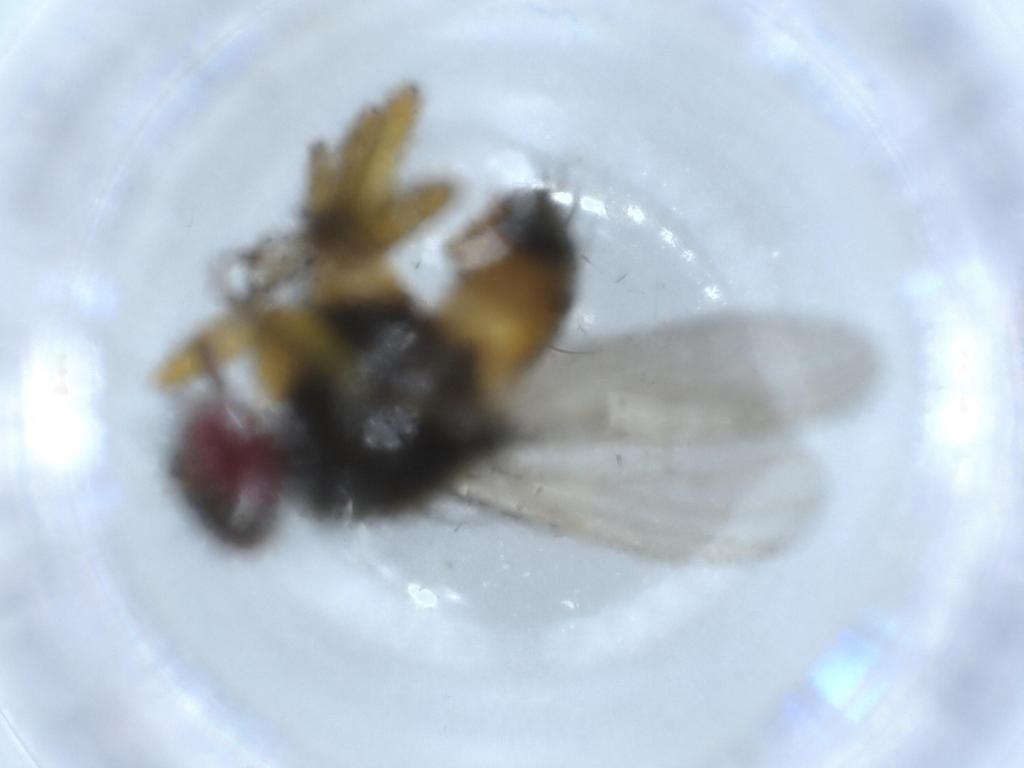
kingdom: Animalia
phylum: Arthropoda
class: Insecta
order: Diptera
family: Muscidae
